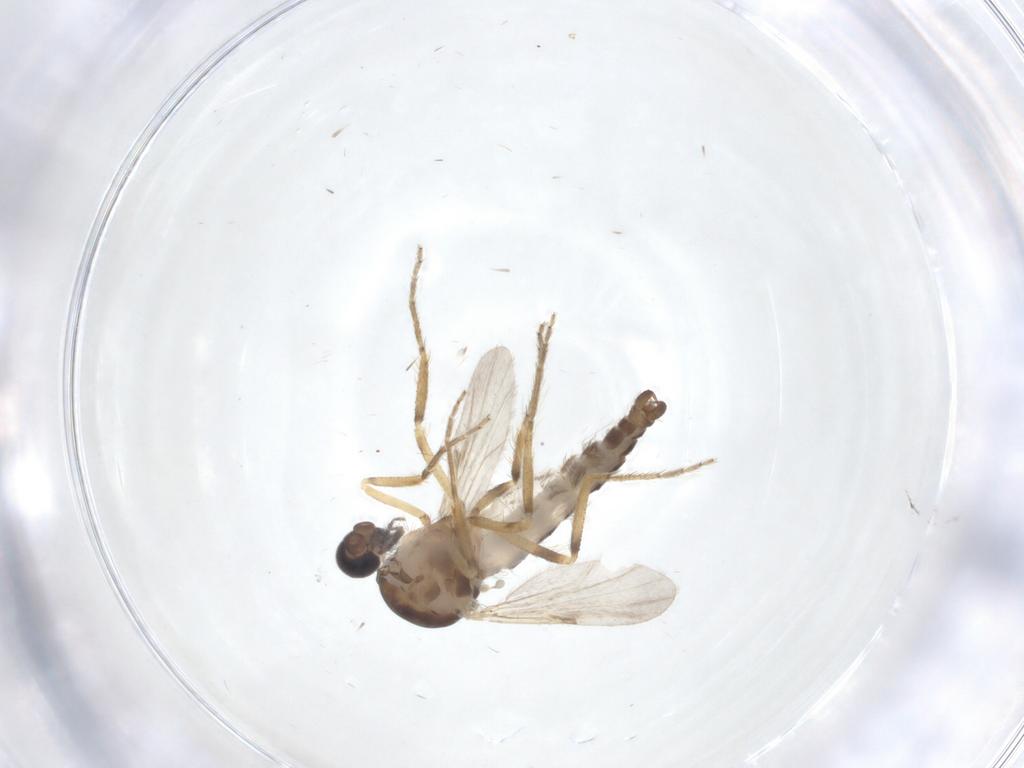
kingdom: Animalia
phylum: Arthropoda
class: Insecta
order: Diptera
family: Ceratopogonidae
